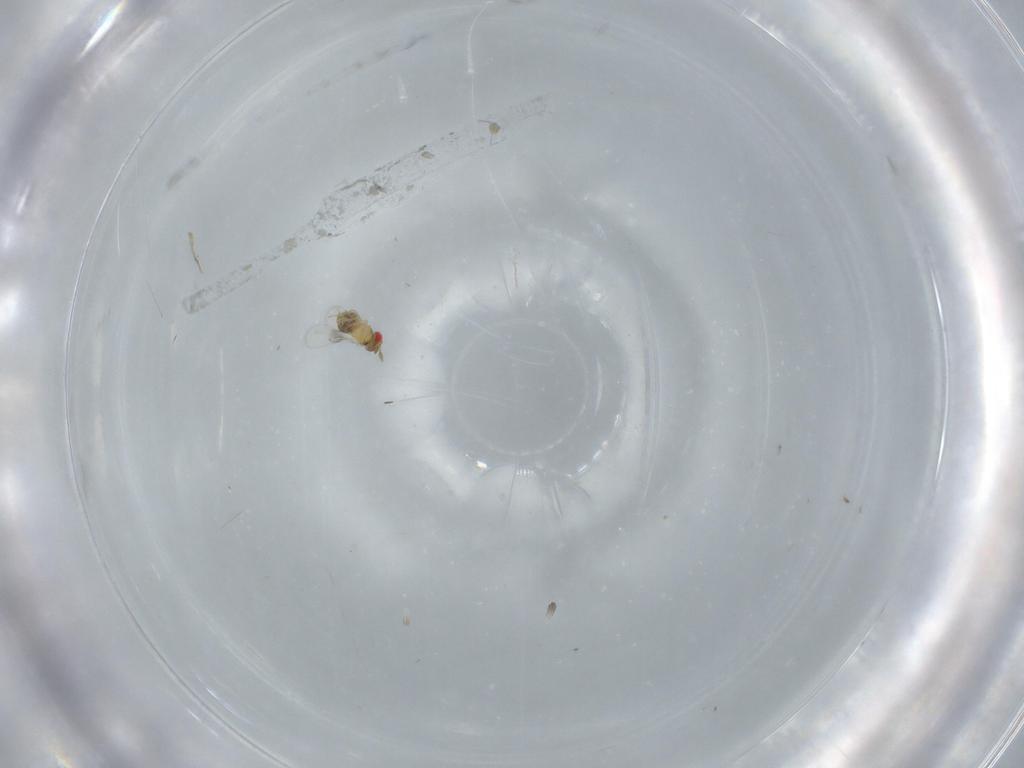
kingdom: Animalia
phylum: Arthropoda
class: Insecta
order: Hymenoptera
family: Trichogrammatidae
